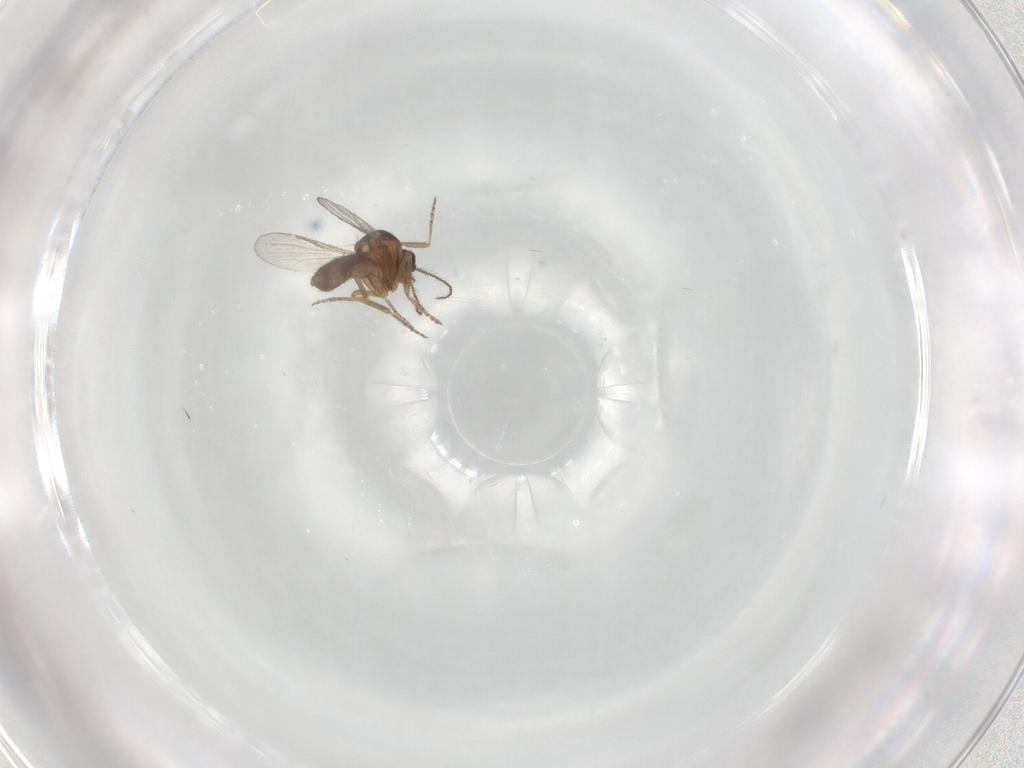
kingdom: Animalia
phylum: Arthropoda
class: Insecta
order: Diptera
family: Ceratopogonidae
